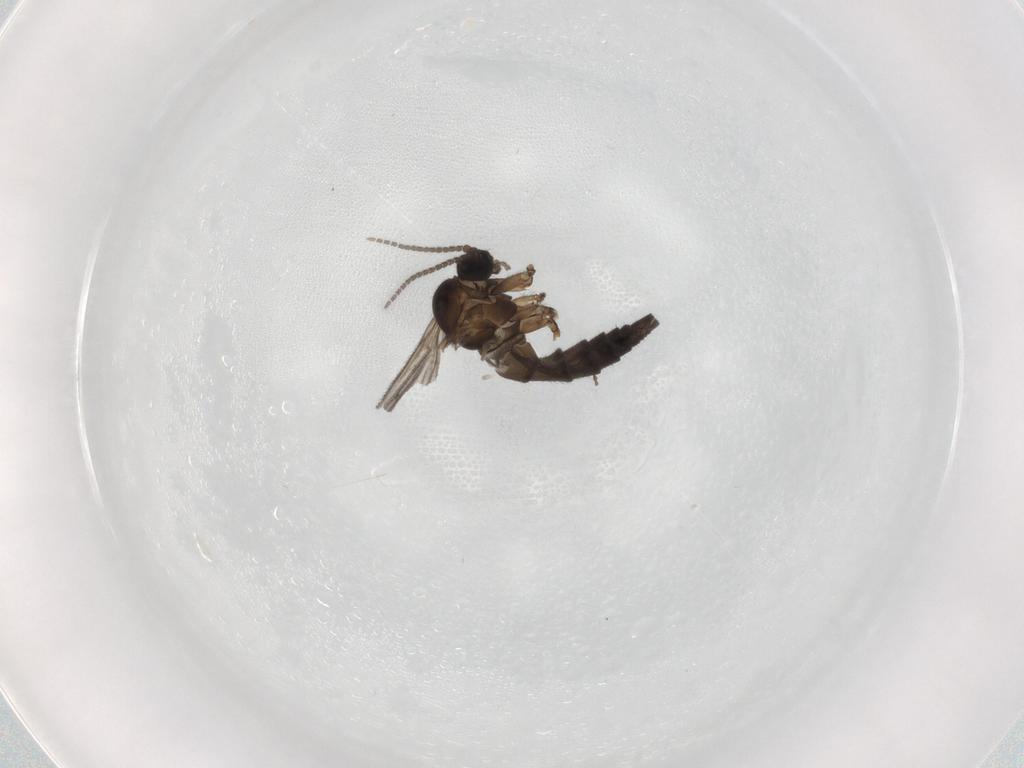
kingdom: Animalia
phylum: Arthropoda
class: Insecta
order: Diptera
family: Sciaridae
